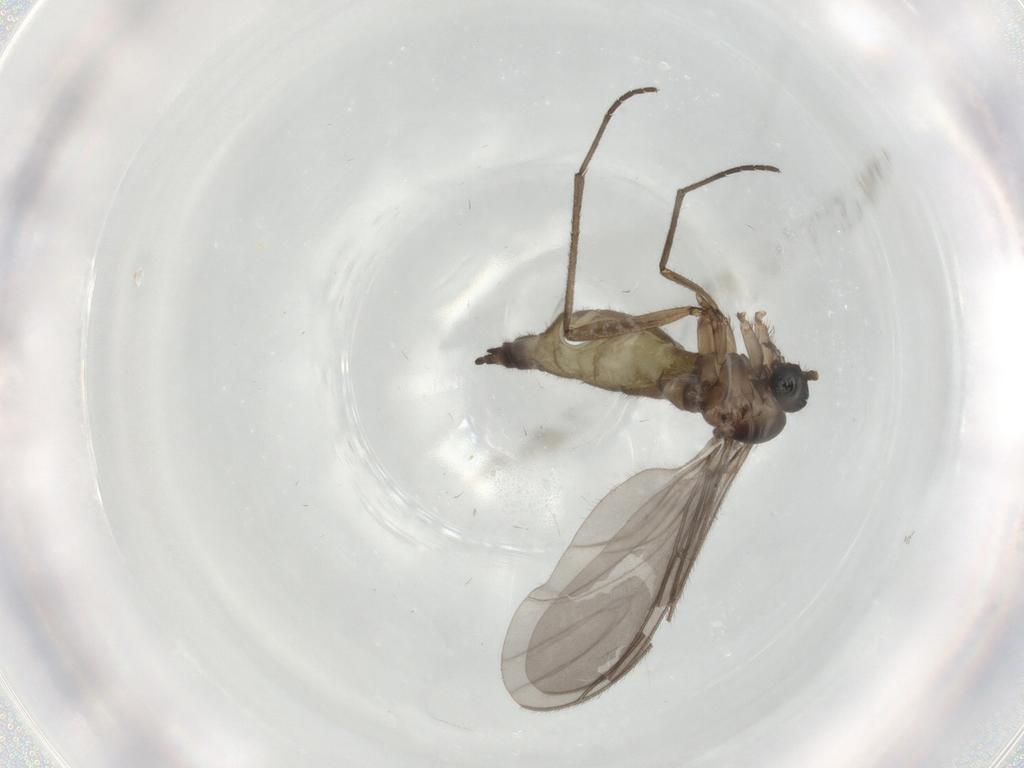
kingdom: Animalia
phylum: Arthropoda
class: Insecta
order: Diptera
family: Sciaridae
